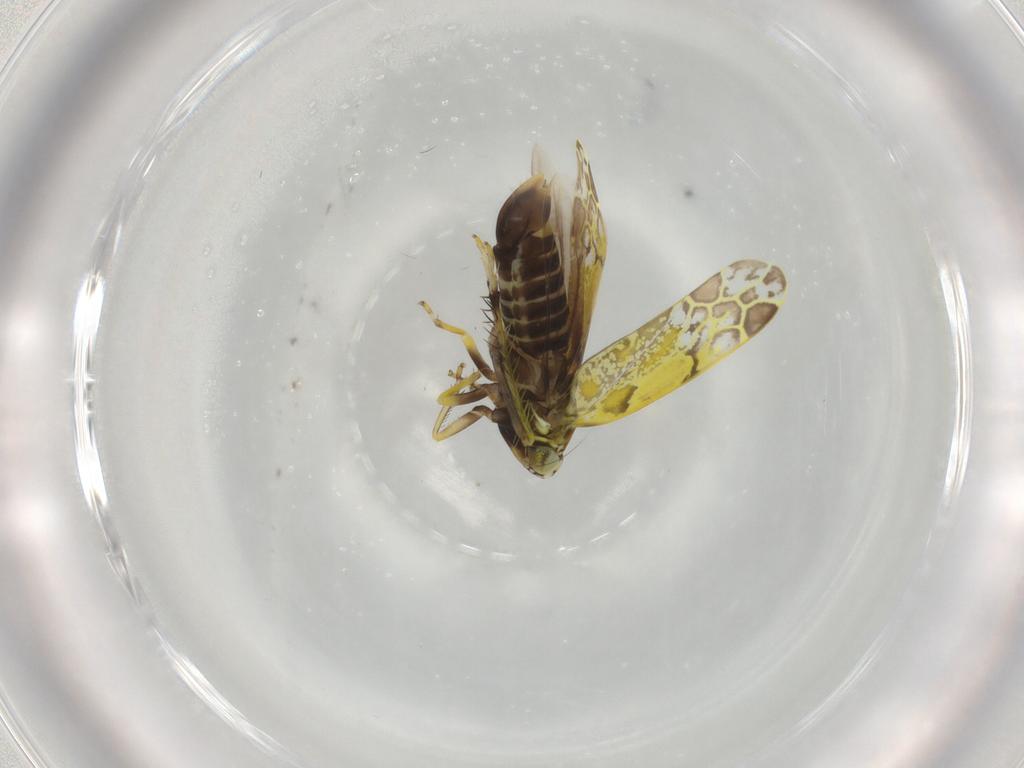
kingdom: Animalia
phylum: Arthropoda
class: Insecta
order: Hemiptera
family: Cicadellidae
